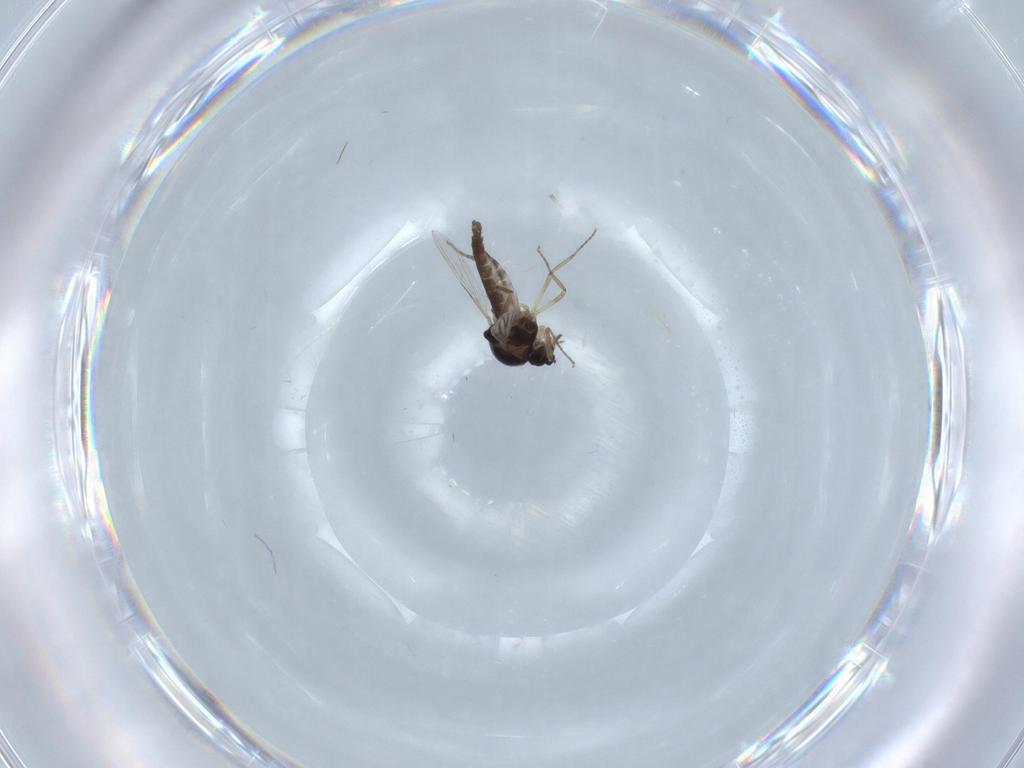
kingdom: Animalia
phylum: Arthropoda
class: Insecta
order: Diptera
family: Ceratopogonidae
